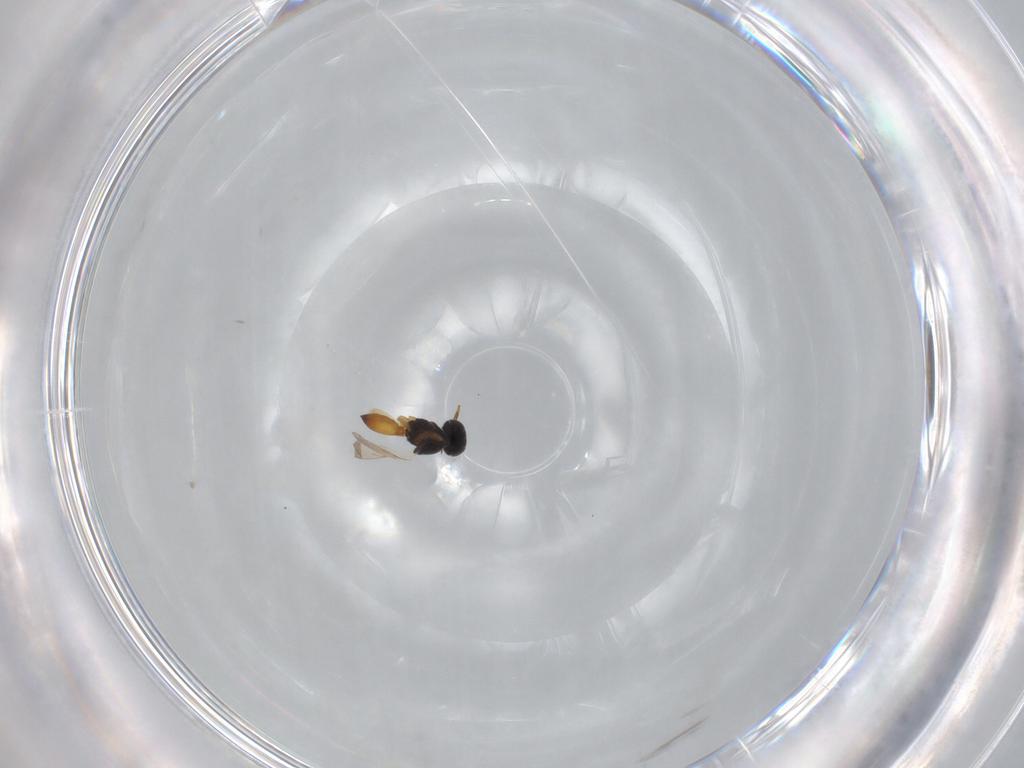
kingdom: Animalia
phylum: Arthropoda
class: Insecta
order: Hymenoptera
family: Scelionidae
